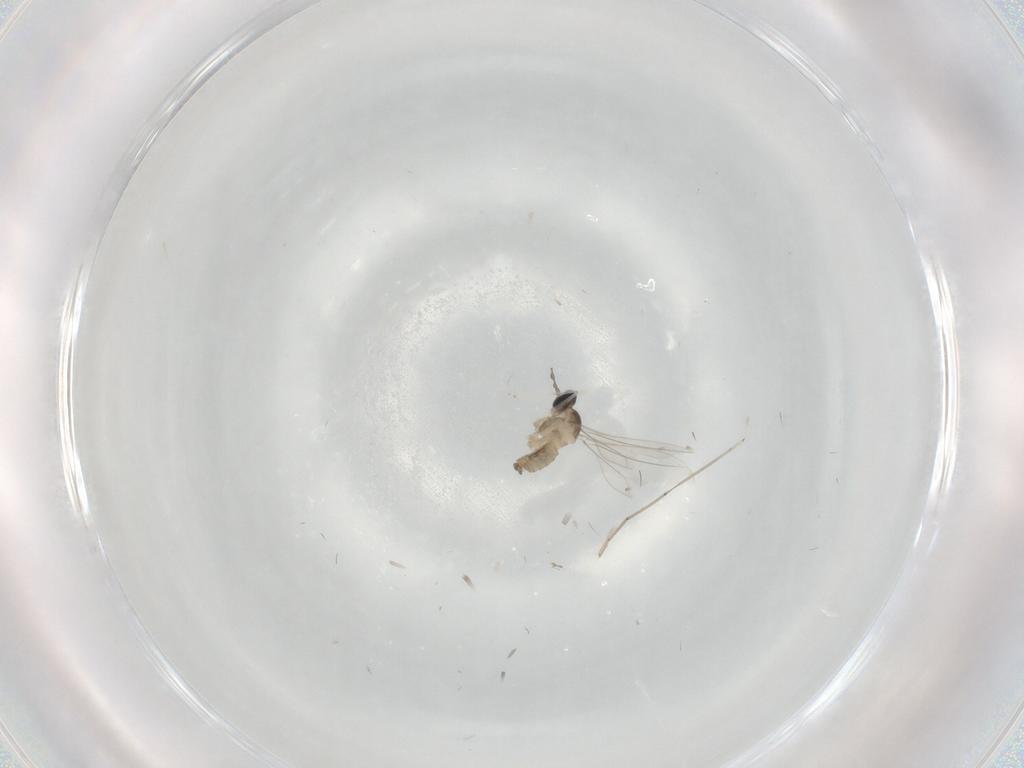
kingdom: Animalia
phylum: Arthropoda
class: Insecta
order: Diptera
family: Cecidomyiidae
